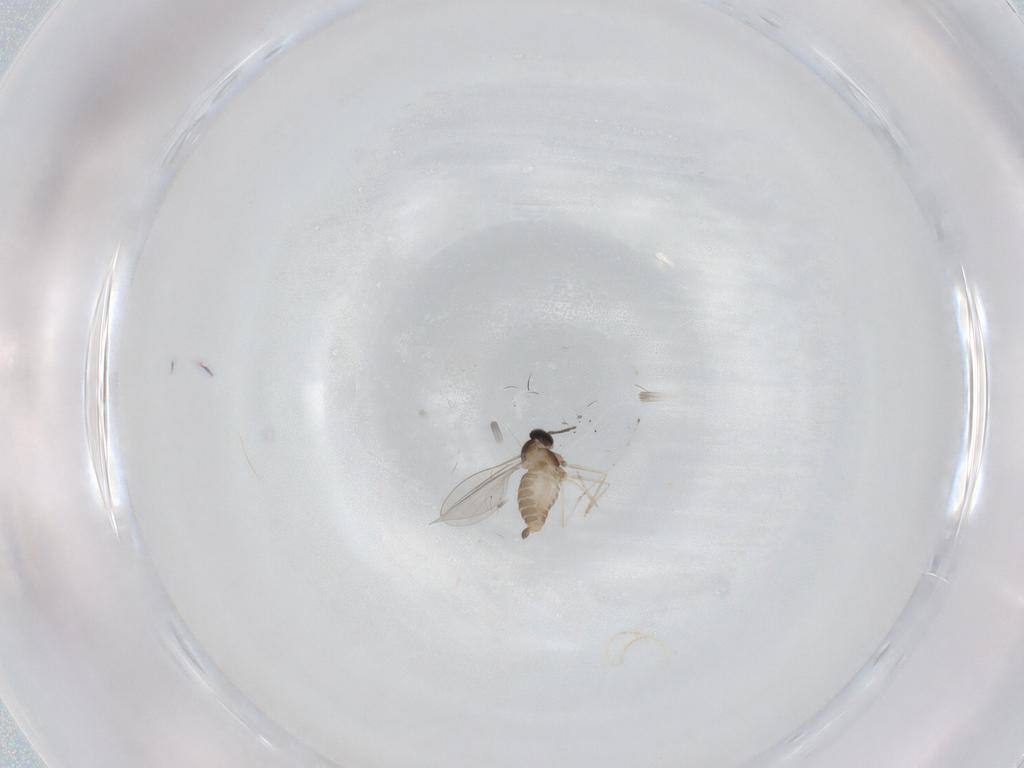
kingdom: Animalia
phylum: Arthropoda
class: Insecta
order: Diptera
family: Cecidomyiidae
